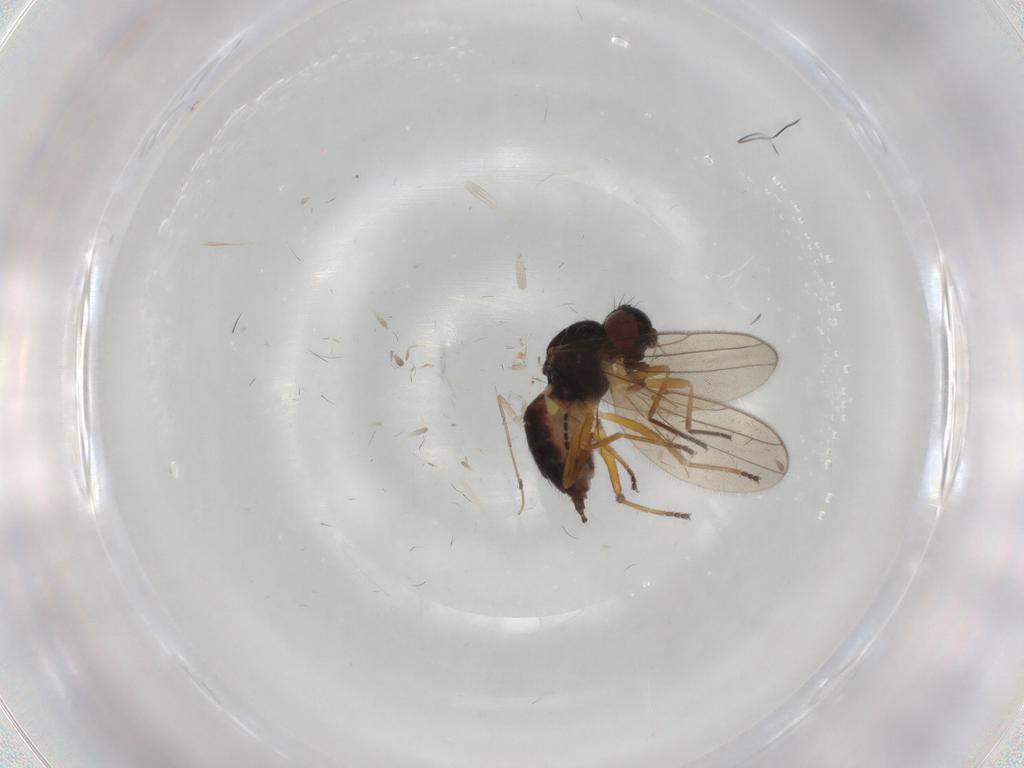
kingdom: Animalia
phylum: Arthropoda
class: Insecta
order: Diptera
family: Chloropidae
